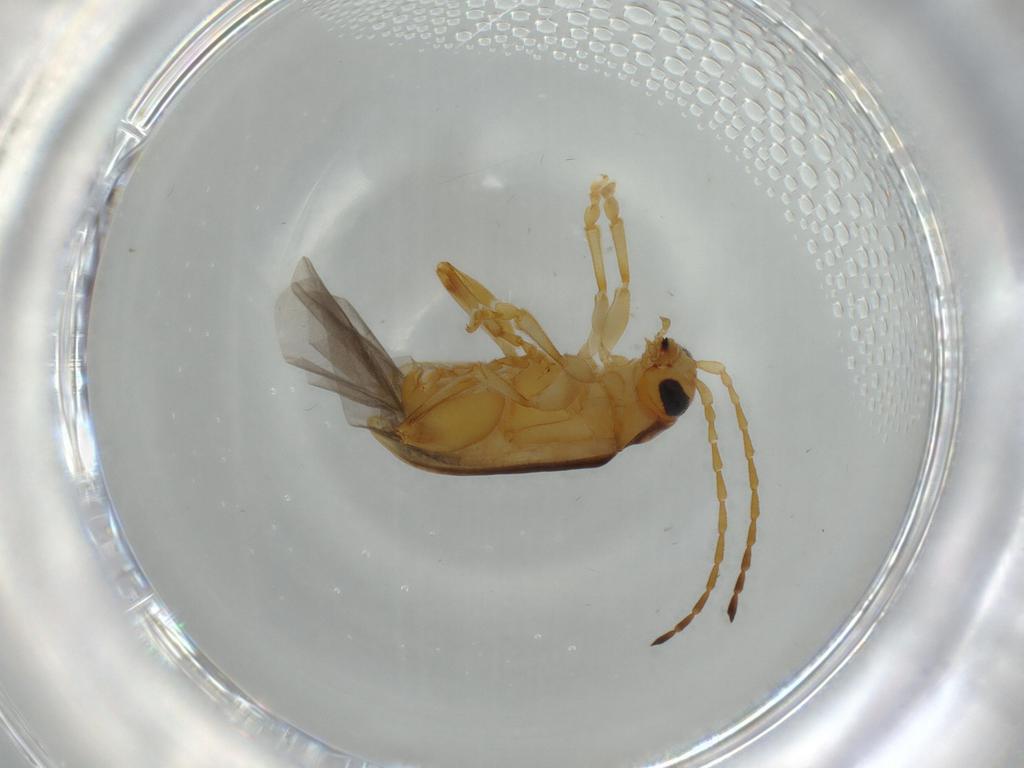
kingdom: Animalia
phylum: Arthropoda
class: Insecta
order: Coleoptera
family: Chrysomelidae
